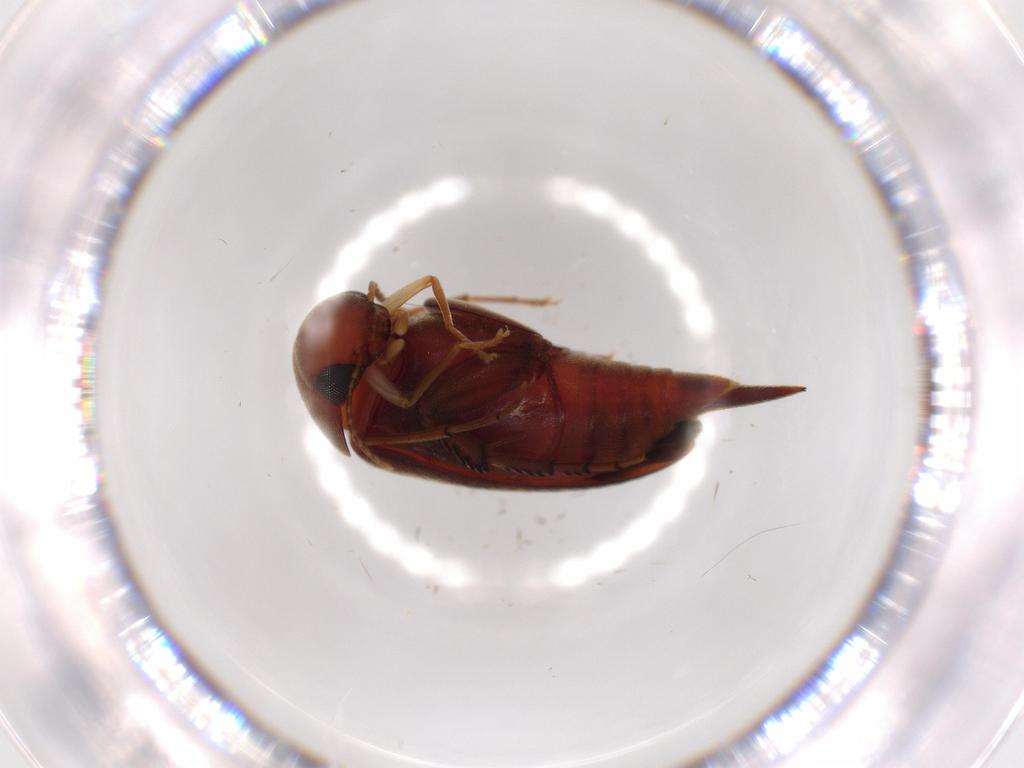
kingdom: Animalia
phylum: Arthropoda
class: Insecta
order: Coleoptera
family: Mordellidae
